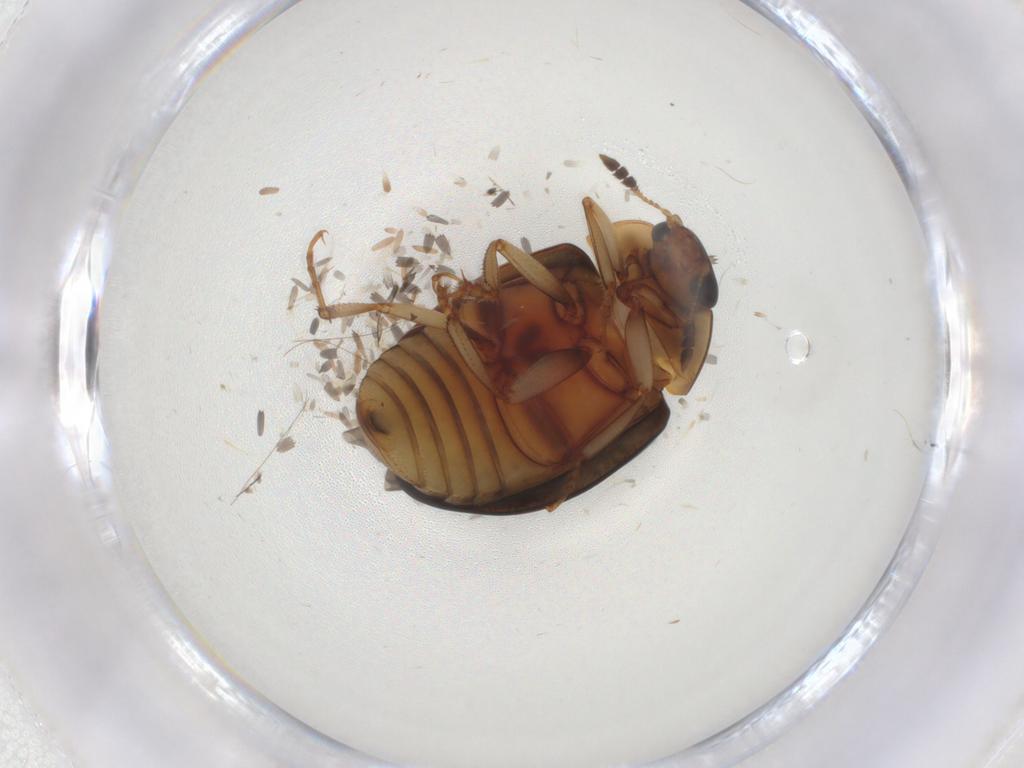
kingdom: Animalia
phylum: Arthropoda
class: Insecta
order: Coleoptera
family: Nitidulidae
